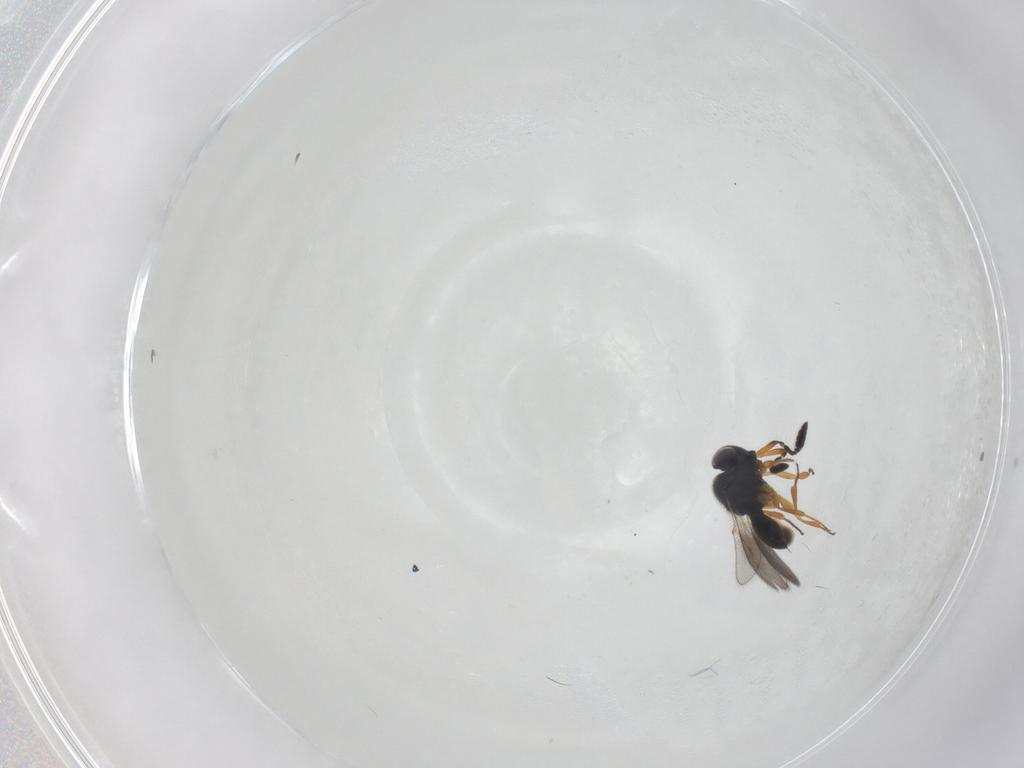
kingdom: Animalia
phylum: Arthropoda
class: Insecta
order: Hymenoptera
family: Scelionidae
